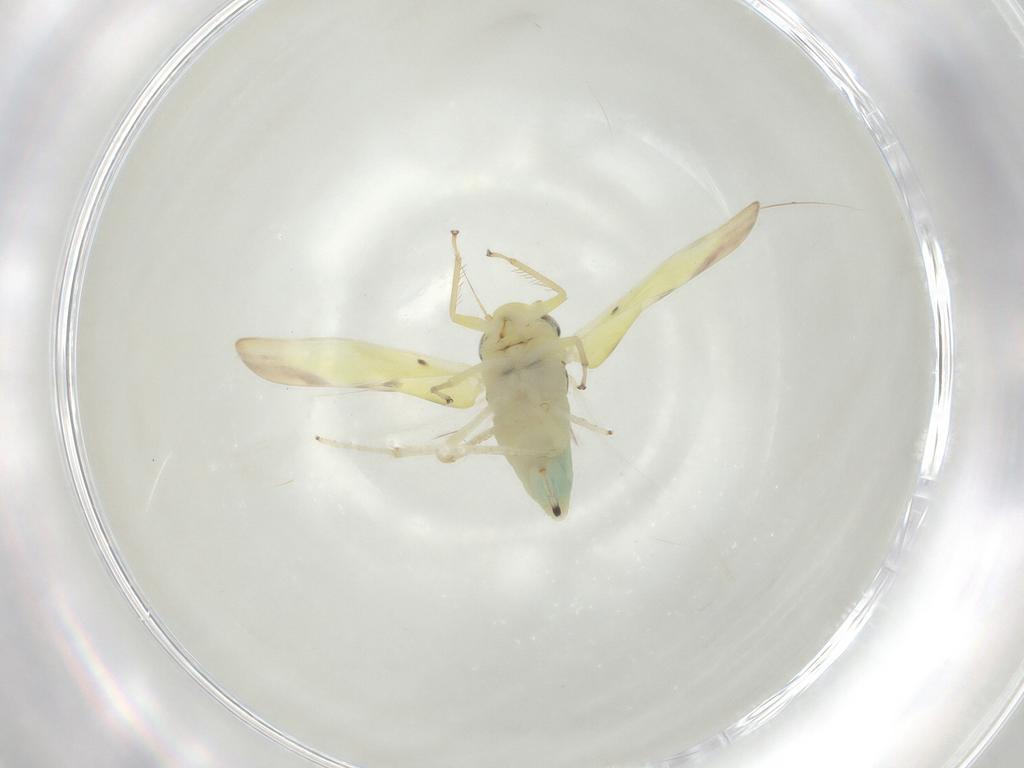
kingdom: Animalia
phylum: Arthropoda
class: Insecta
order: Hemiptera
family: Cicadellidae
